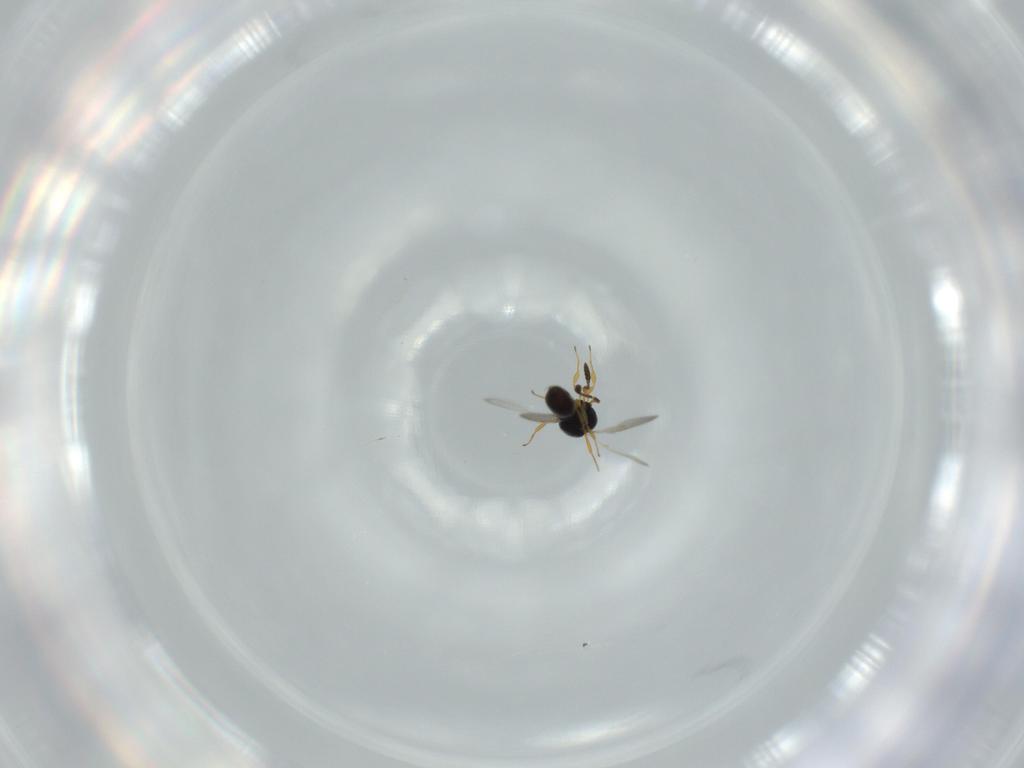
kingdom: Animalia
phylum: Arthropoda
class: Insecta
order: Hymenoptera
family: Scelionidae
